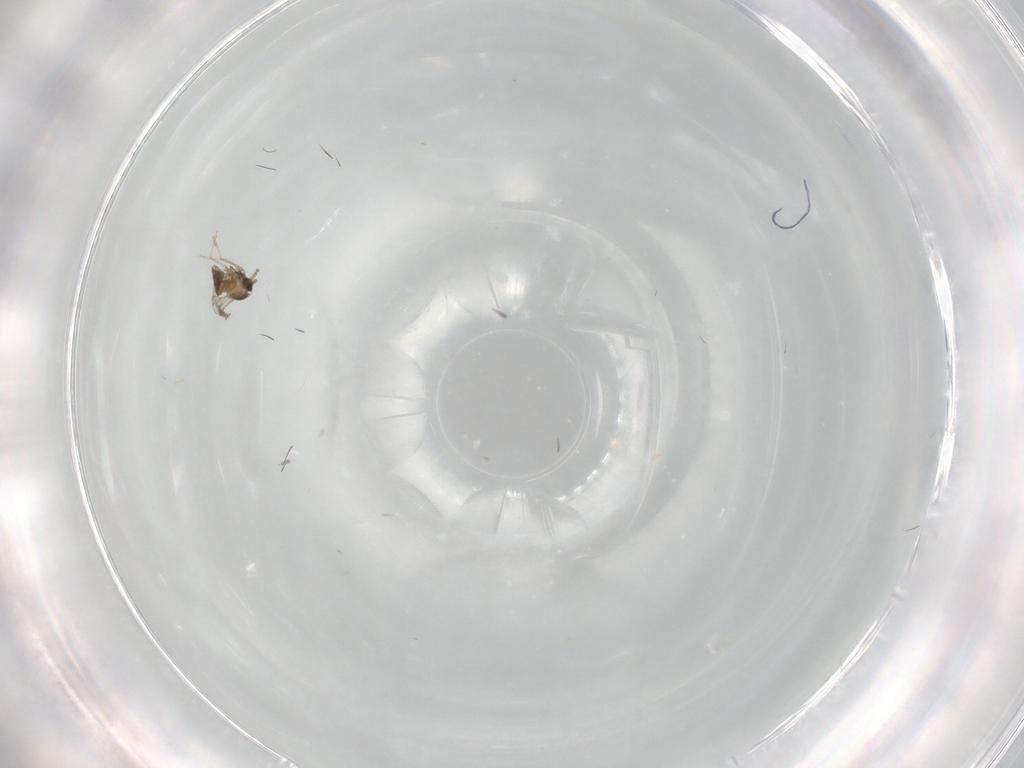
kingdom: Animalia
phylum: Arthropoda
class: Insecta
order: Diptera
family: Cecidomyiidae
